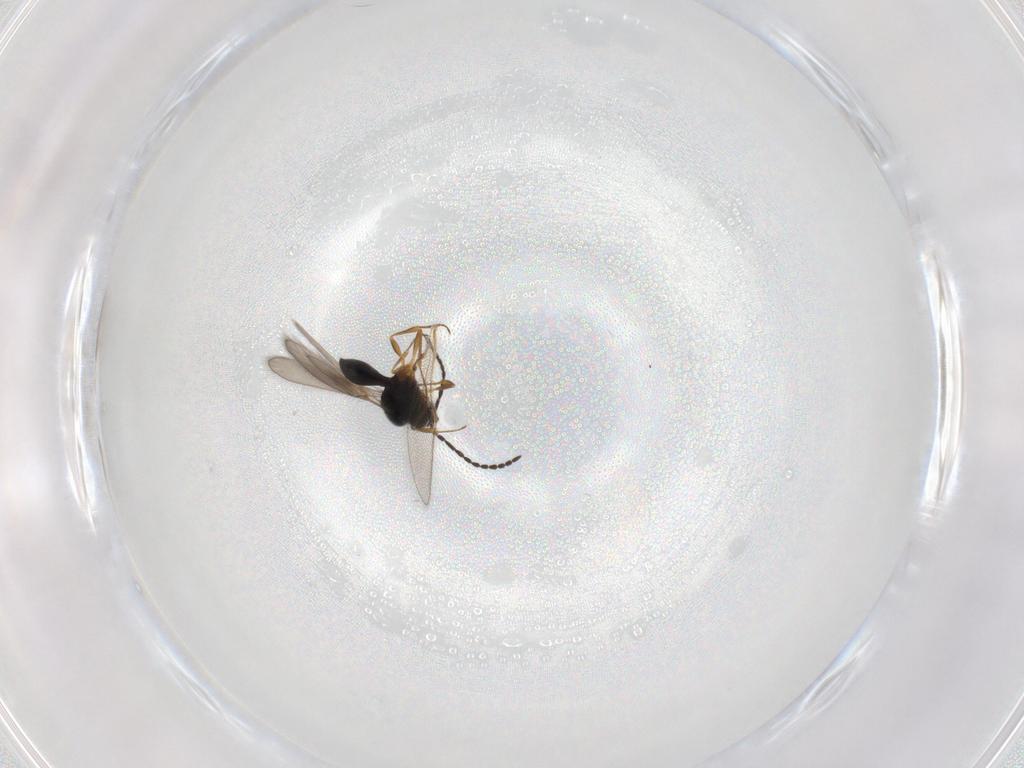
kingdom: Animalia
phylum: Arthropoda
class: Insecta
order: Hymenoptera
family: Scelionidae
